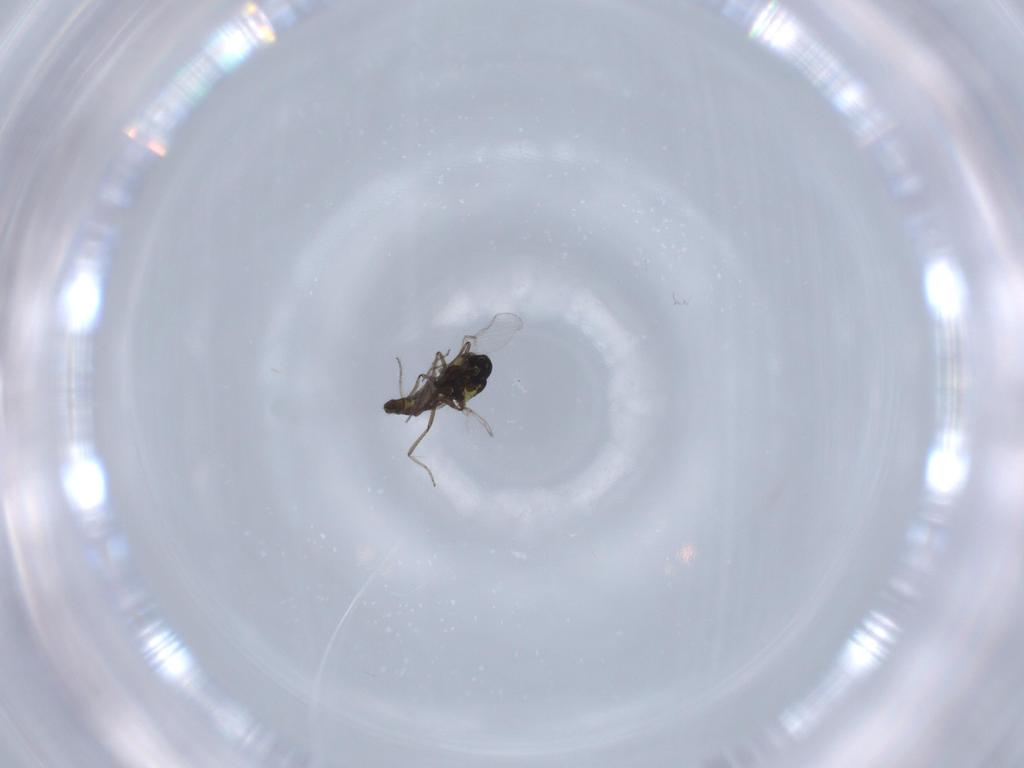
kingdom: Animalia
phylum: Arthropoda
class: Insecta
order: Diptera
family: Ceratopogonidae
